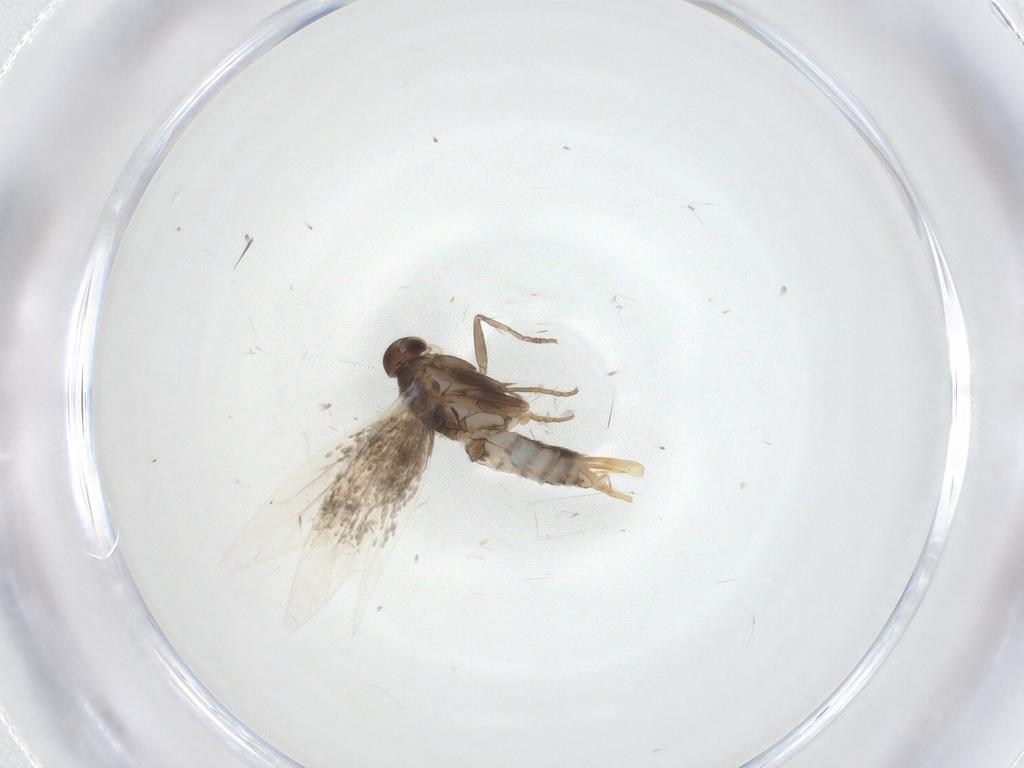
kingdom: Animalia
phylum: Arthropoda
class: Insecta
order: Lepidoptera
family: Elachistidae
